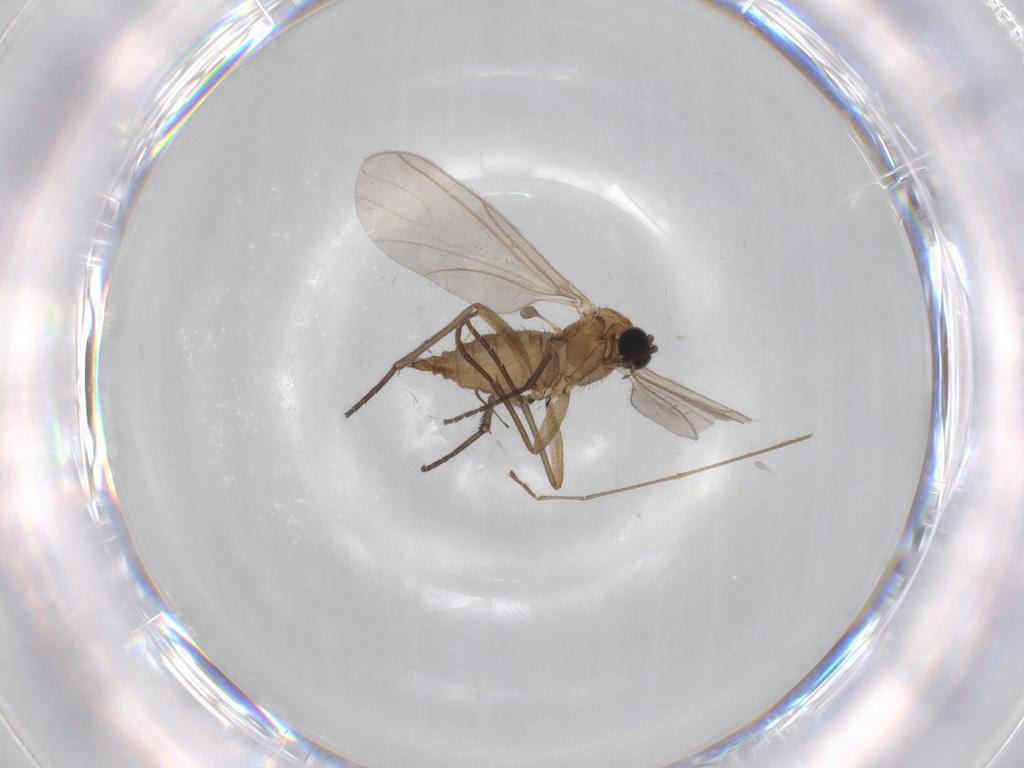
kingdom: Animalia
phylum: Arthropoda
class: Insecta
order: Diptera
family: Sciaridae
